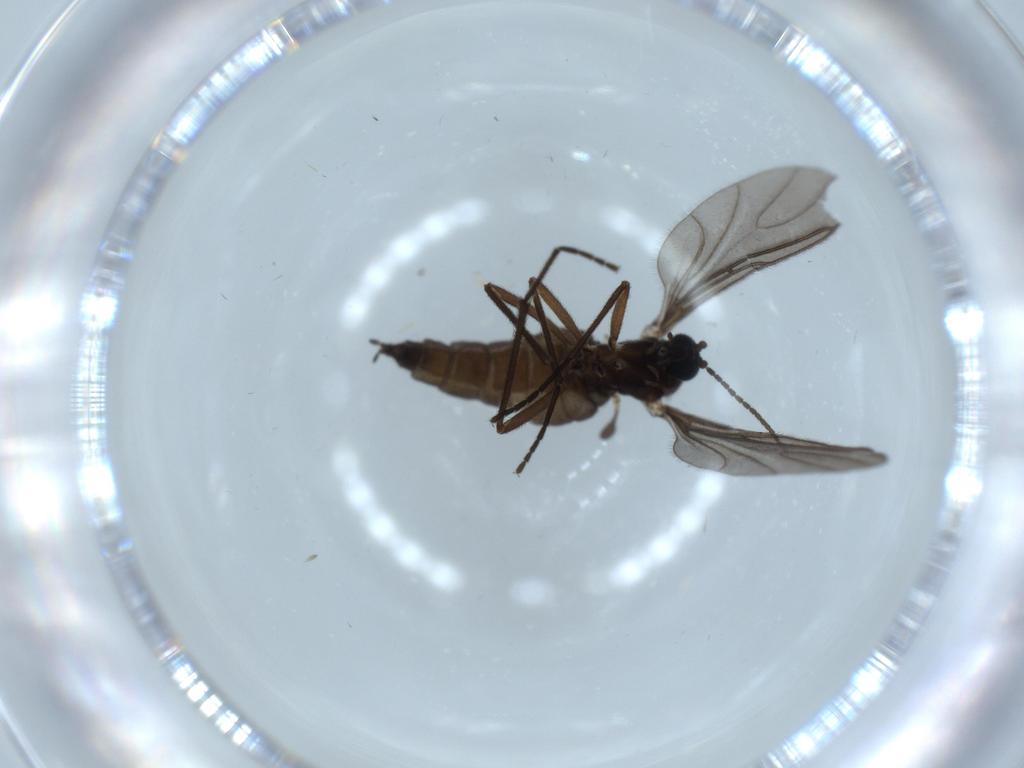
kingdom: Animalia
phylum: Arthropoda
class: Insecta
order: Diptera
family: Sciaridae
